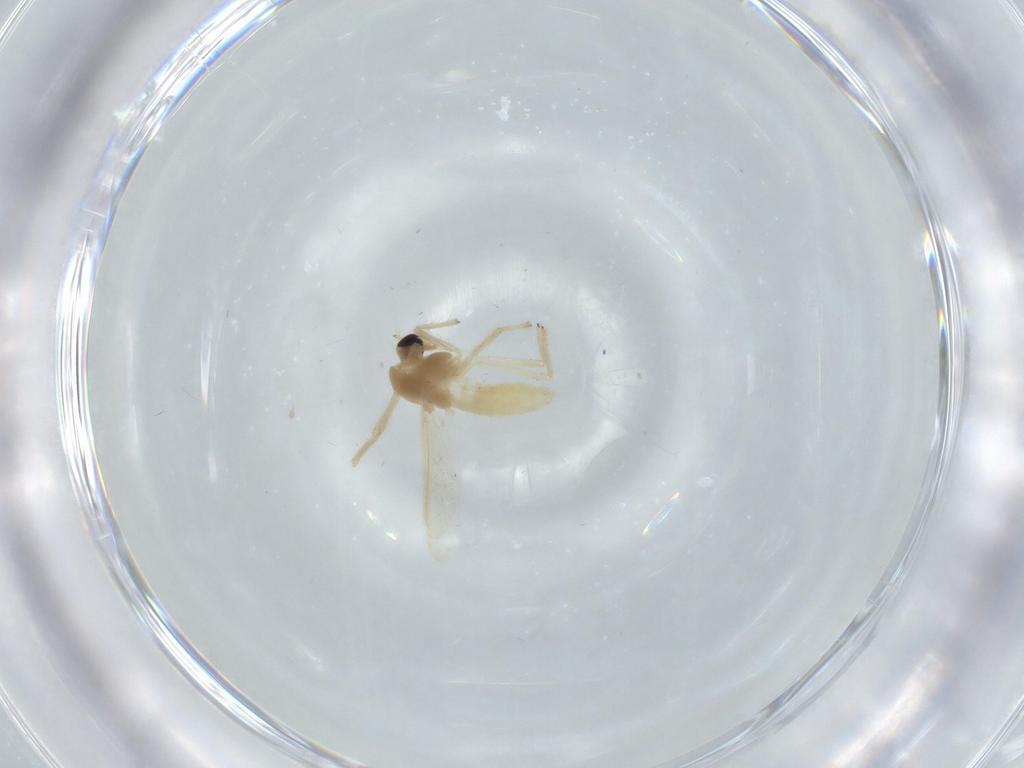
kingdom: Animalia
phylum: Arthropoda
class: Insecta
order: Diptera
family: Chironomidae
